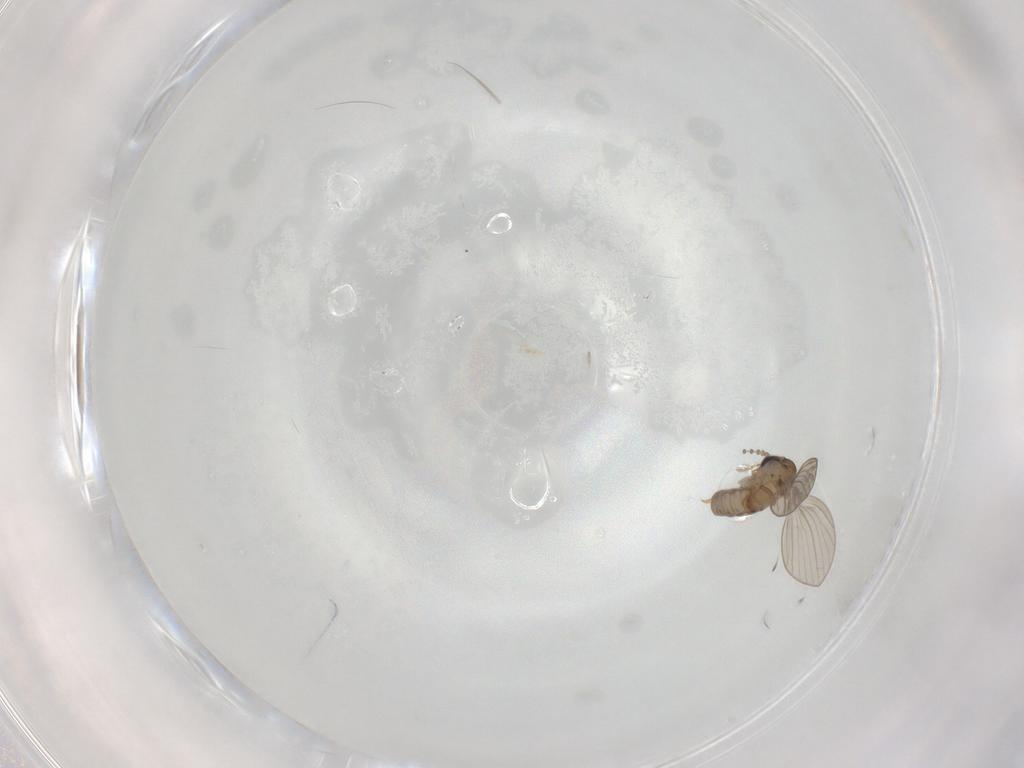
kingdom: Animalia
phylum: Arthropoda
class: Insecta
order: Diptera
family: Psychodidae
